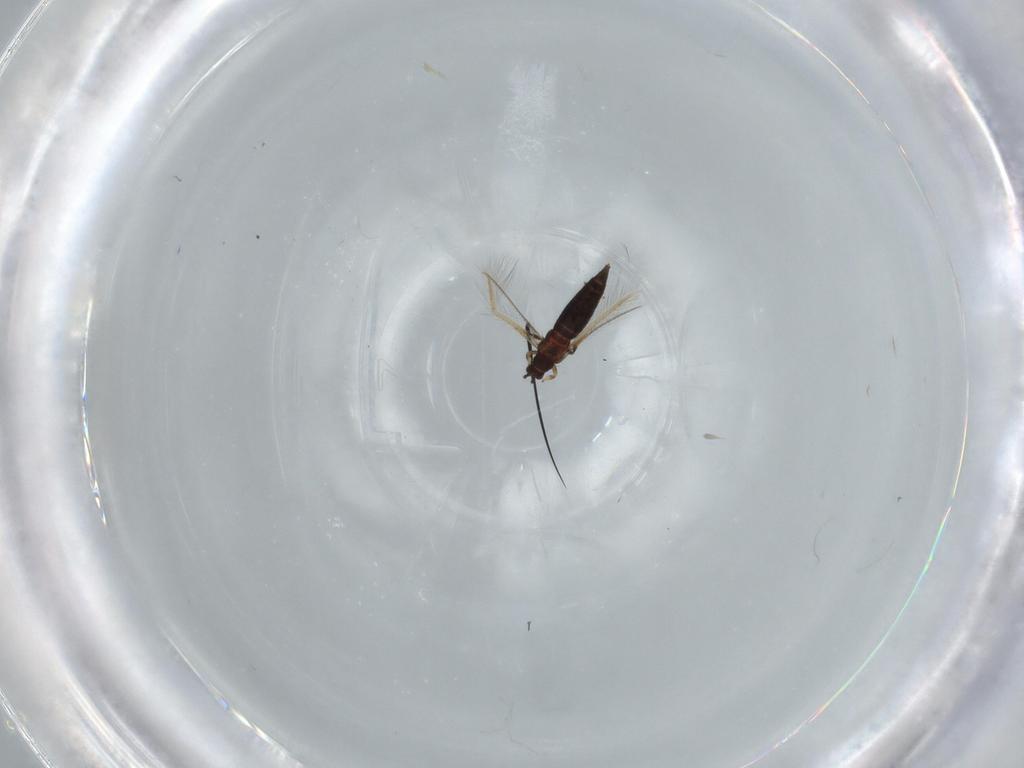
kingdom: Animalia
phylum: Arthropoda
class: Insecta
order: Thysanoptera
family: Thripidae
